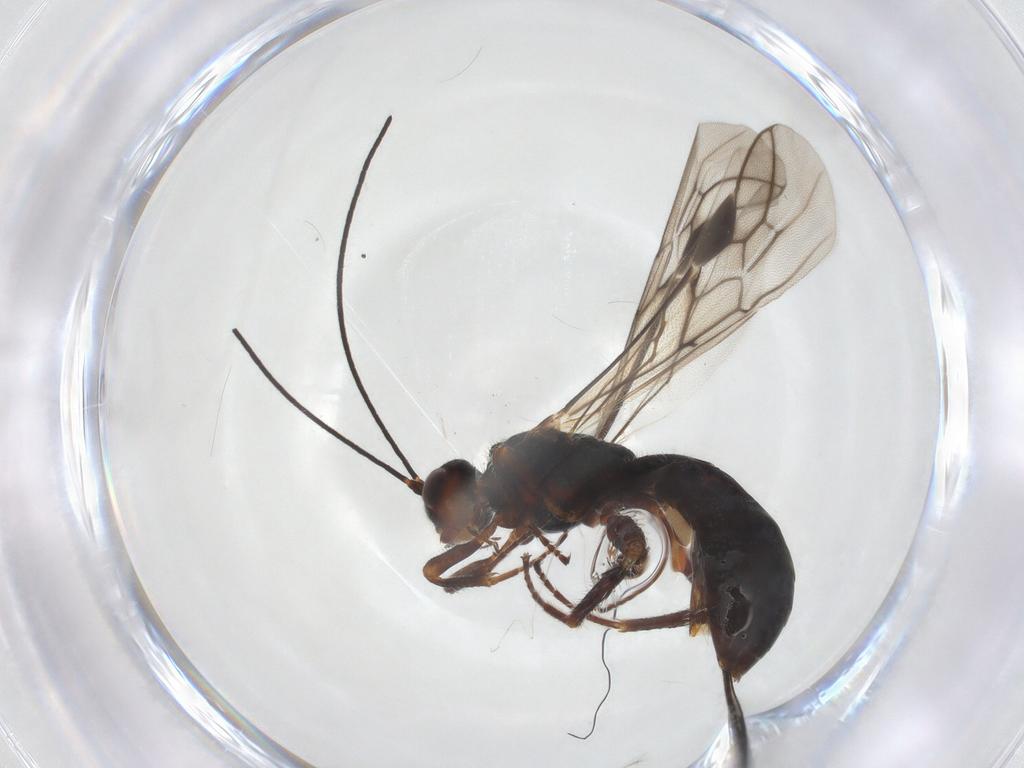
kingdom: Animalia
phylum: Arthropoda
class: Insecta
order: Hymenoptera
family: Braconidae
